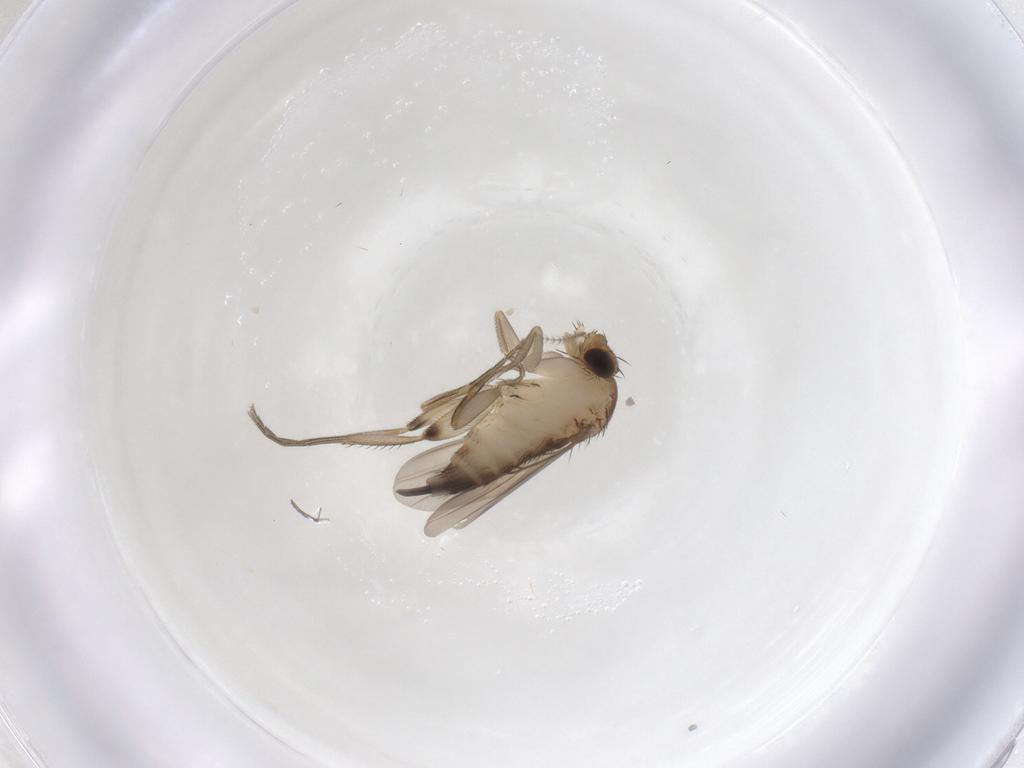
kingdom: Animalia
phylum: Arthropoda
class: Insecta
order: Diptera
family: Phoridae
